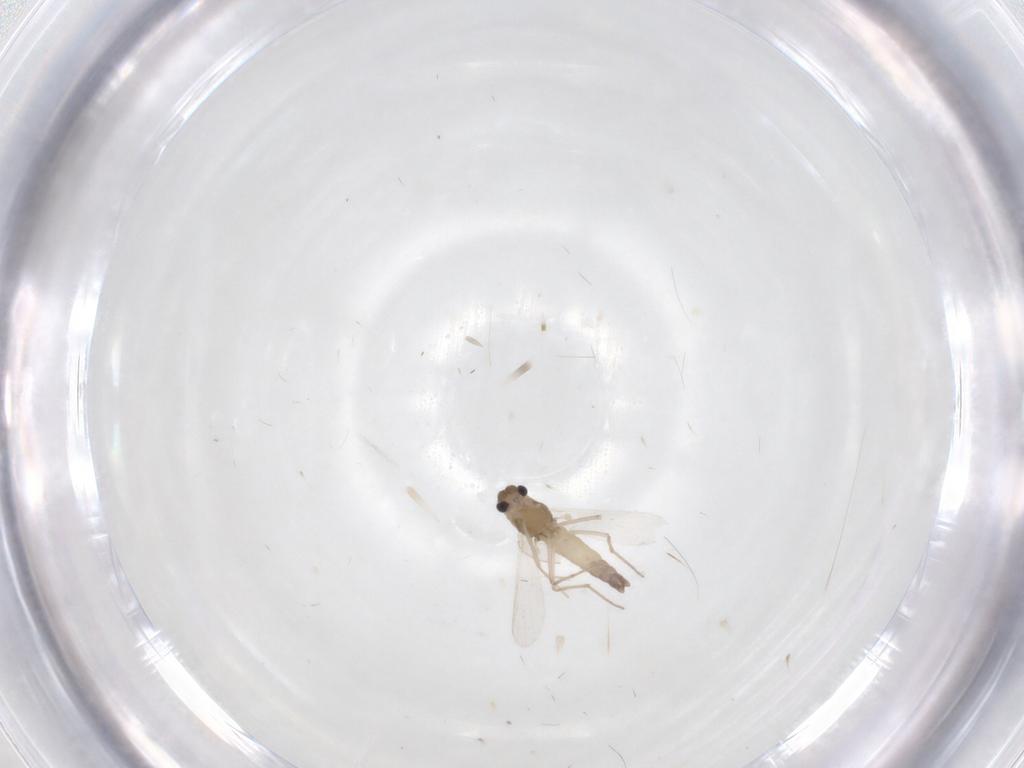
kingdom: Animalia
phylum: Arthropoda
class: Insecta
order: Diptera
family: Chironomidae
